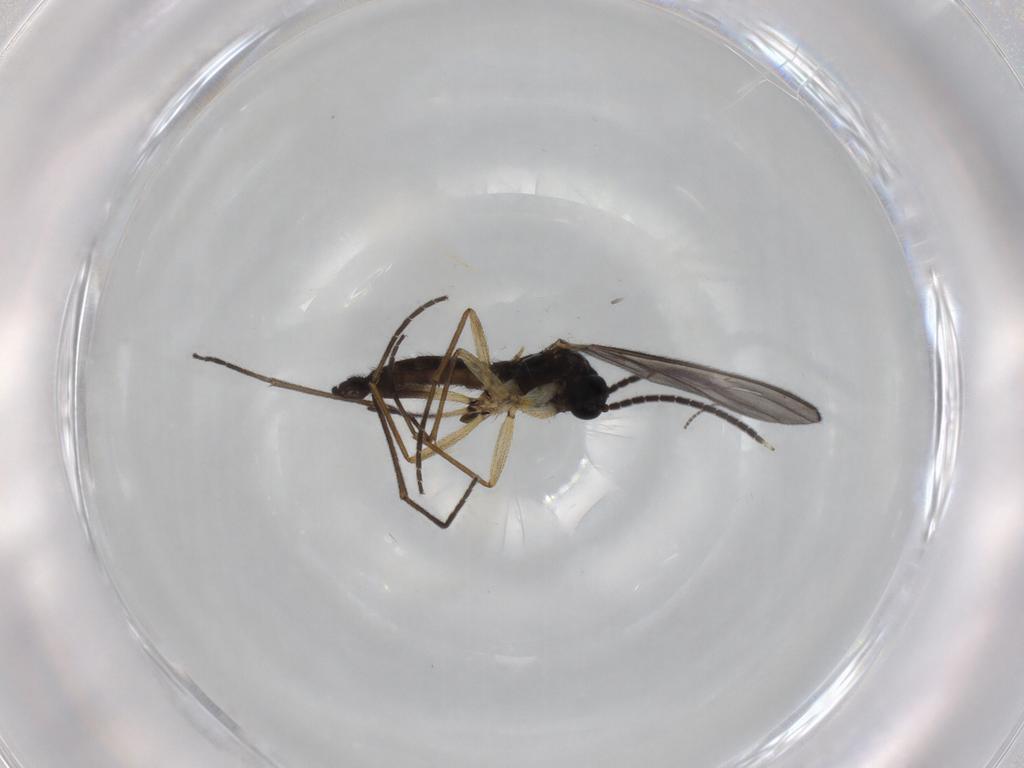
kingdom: Animalia
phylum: Arthropoda
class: Insecta
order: Diptera
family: Sciaridae
